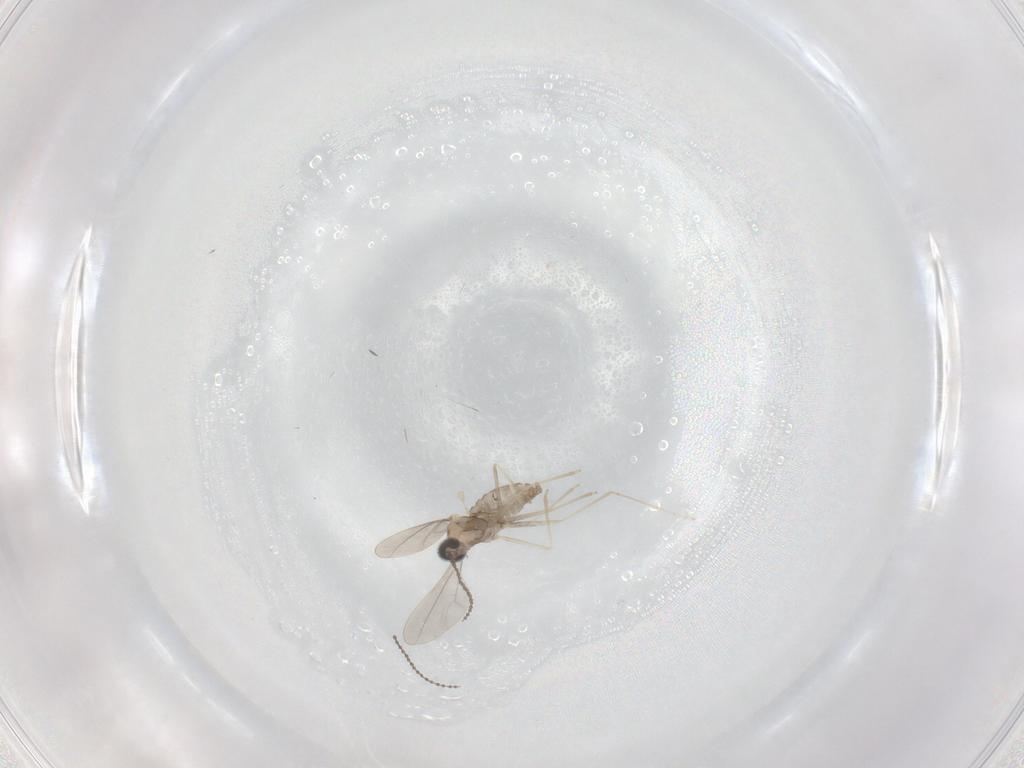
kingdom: Animalia
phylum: Arthropoda
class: Insecta
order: Diptera
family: Cecidomyiidae
